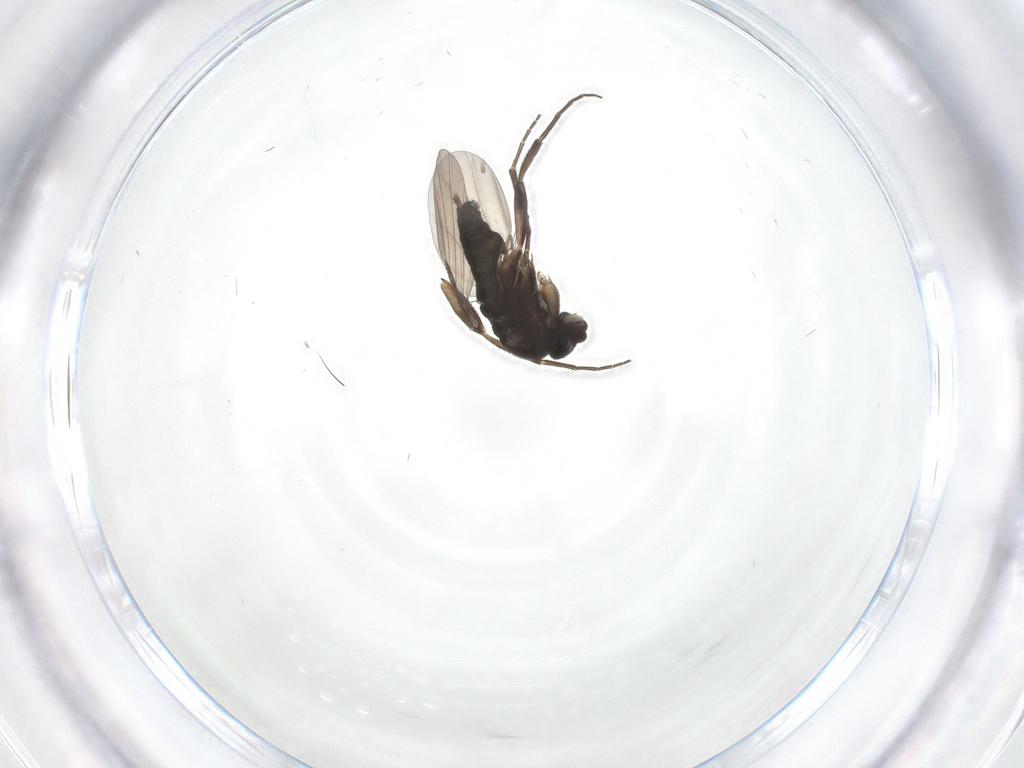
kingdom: Animalia
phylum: Arthropoda
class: Insecta
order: Diptera
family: Phoridae
